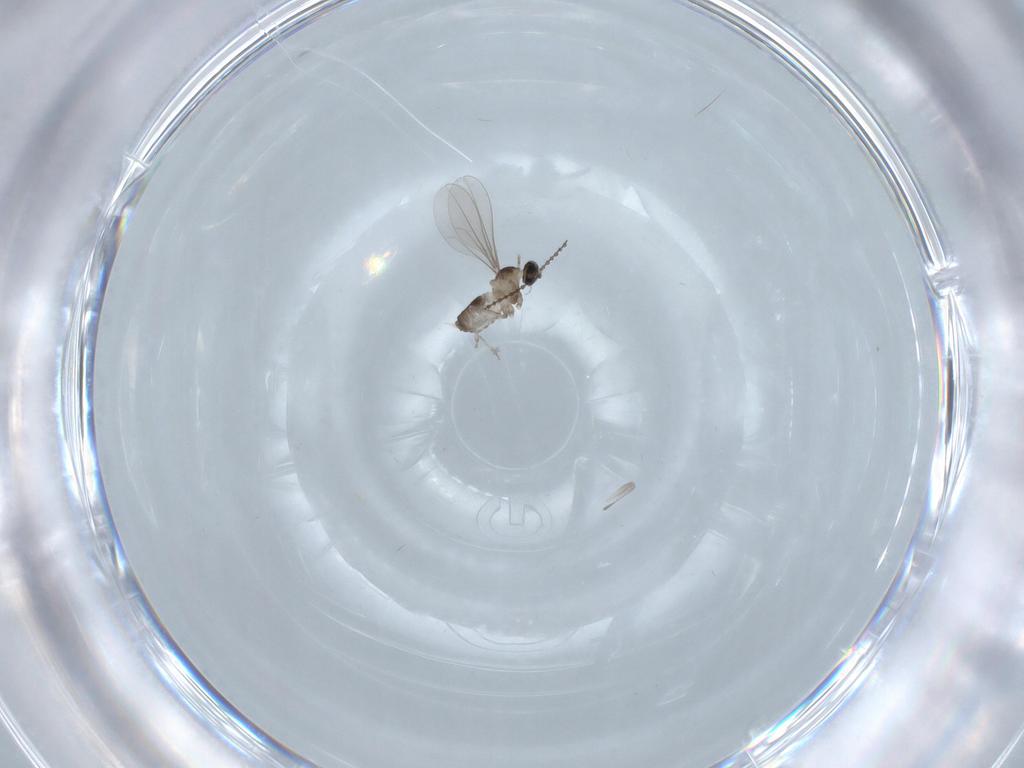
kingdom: Animalia
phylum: Arthropoda
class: Insecta
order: Diptera
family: Cecidomyiidae
